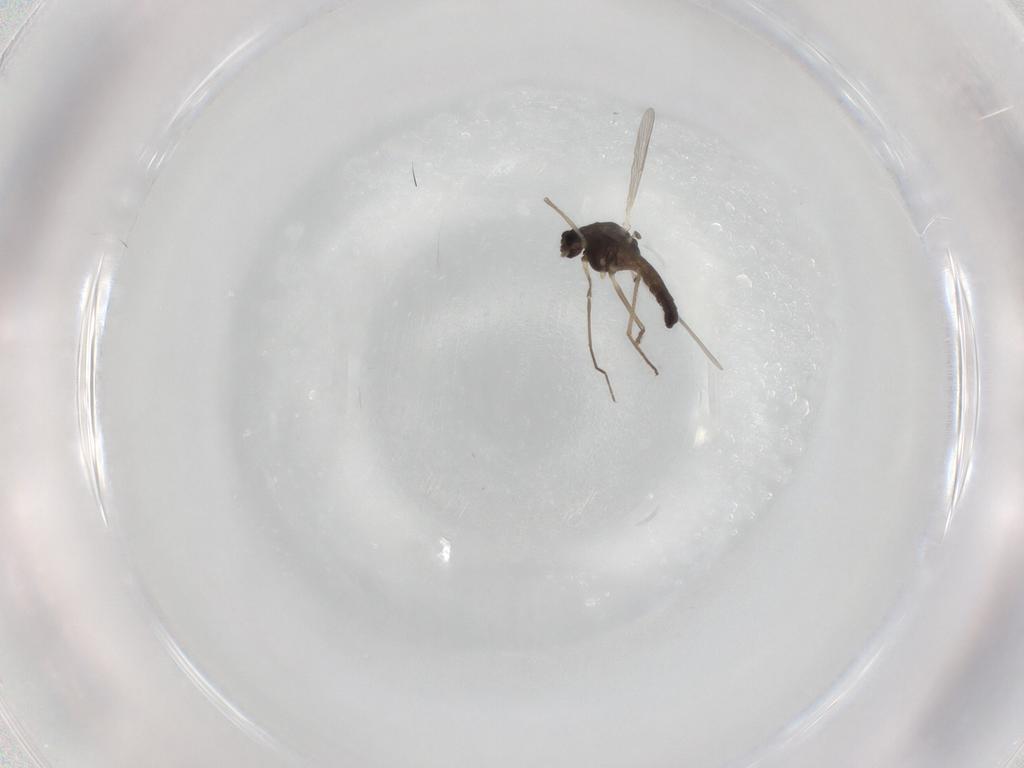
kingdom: Animalia
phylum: Arthropoda
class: Insecta
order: Diptera
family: Chironomidae
